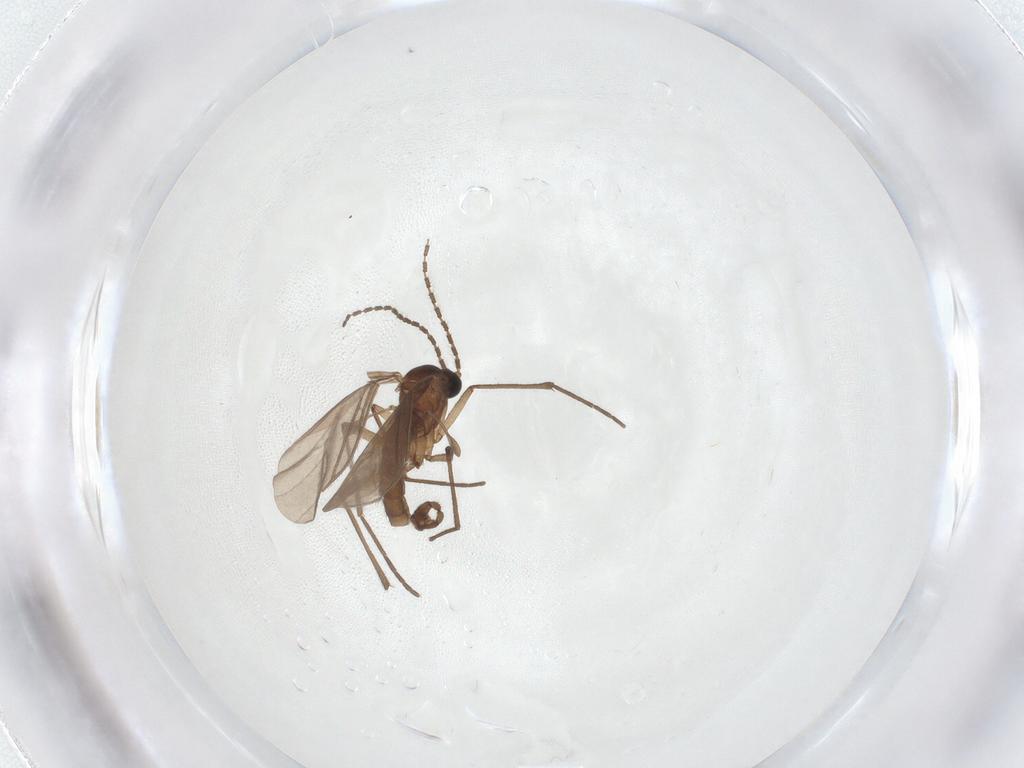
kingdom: Animalia
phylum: Arthropoda
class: Insecta
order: Diptera
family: Sciaridae
